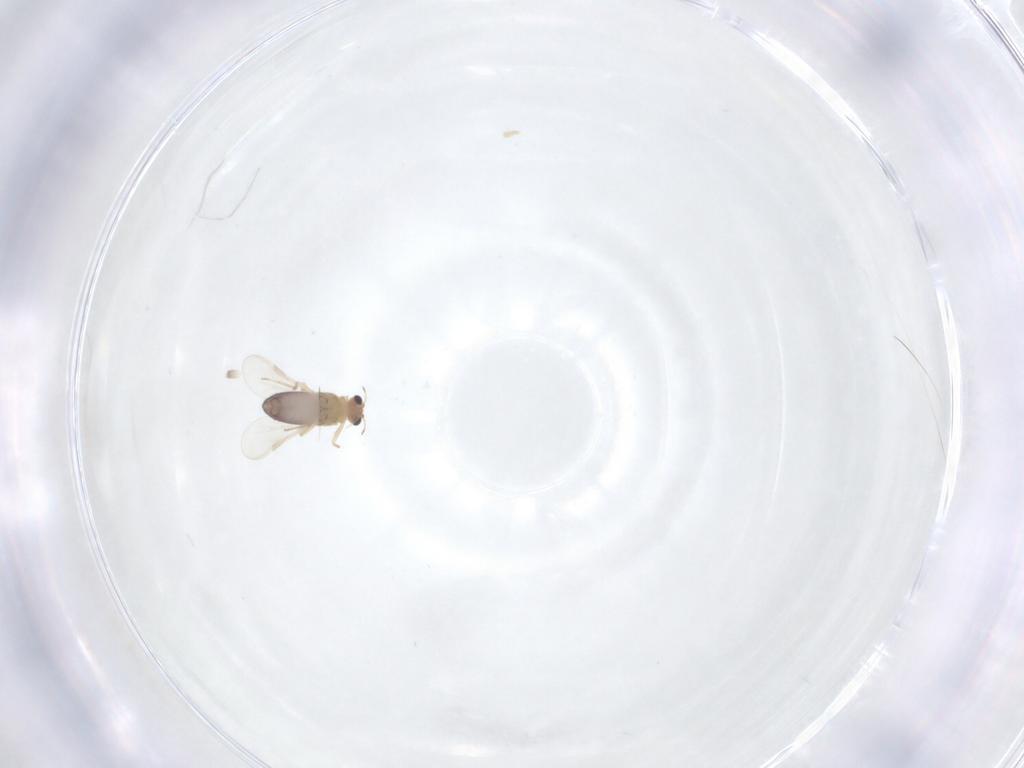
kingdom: Animalia
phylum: Arthropoda
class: Insecta
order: Diptera
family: Chironomidae
